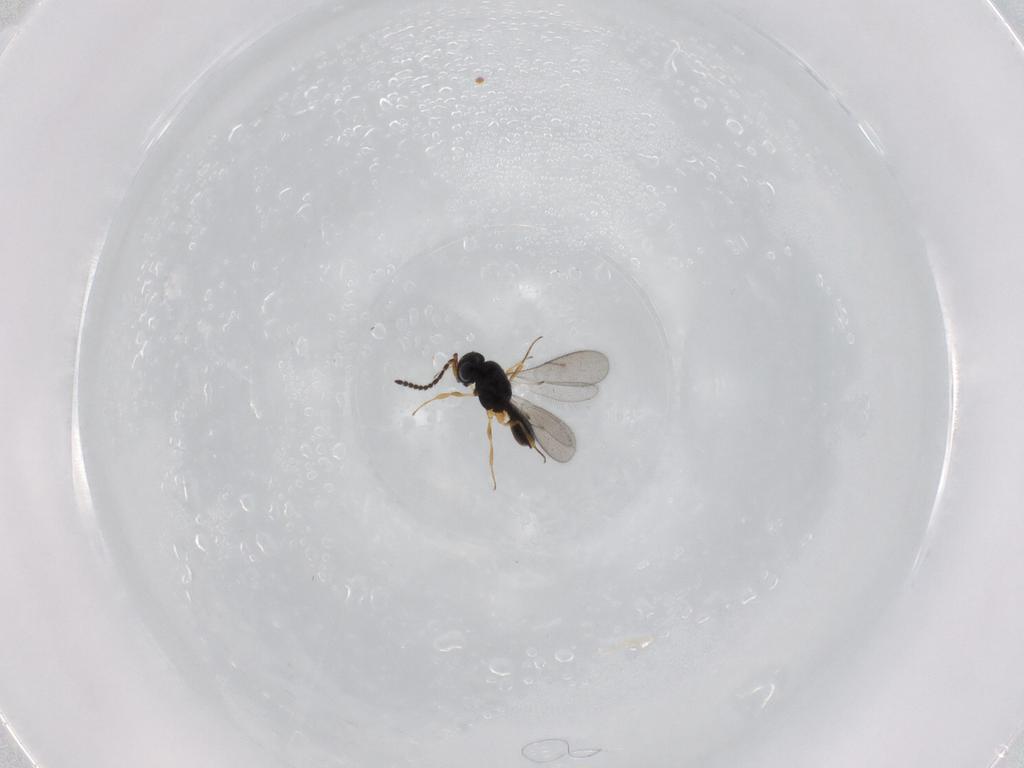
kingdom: Animalia
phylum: Arthropoda
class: Insecta
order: Hymenoptera
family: Scelionidae
